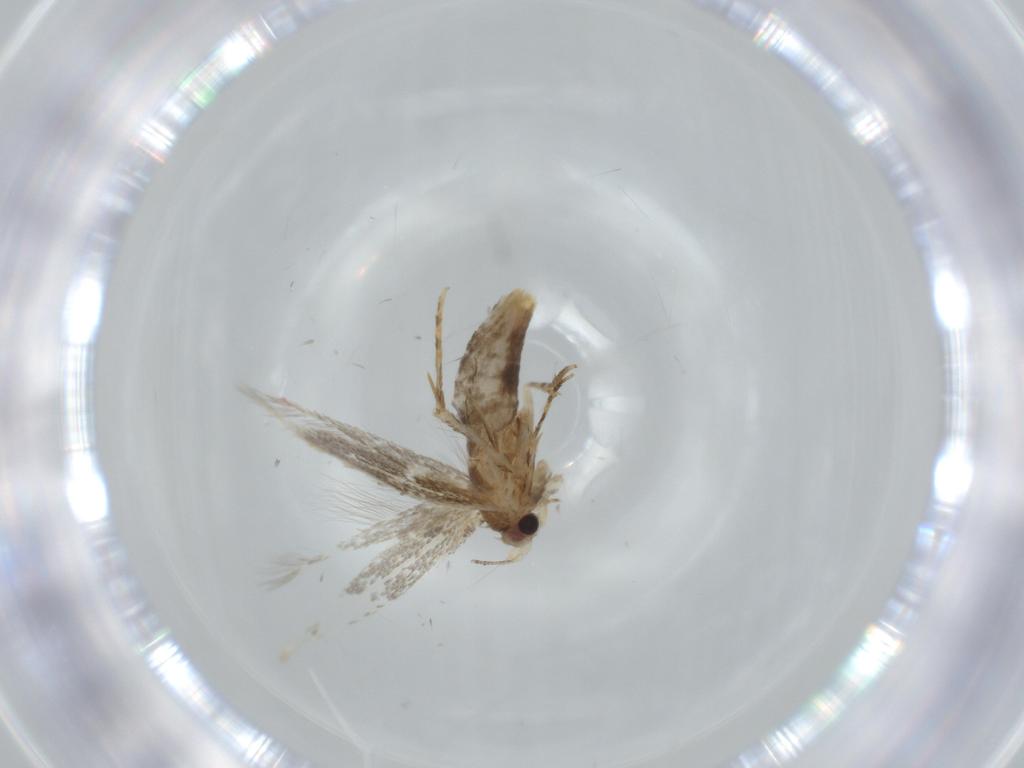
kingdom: Animalia
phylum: Arthropoda
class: Insecta
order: Lepidoptera
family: Tineidae
